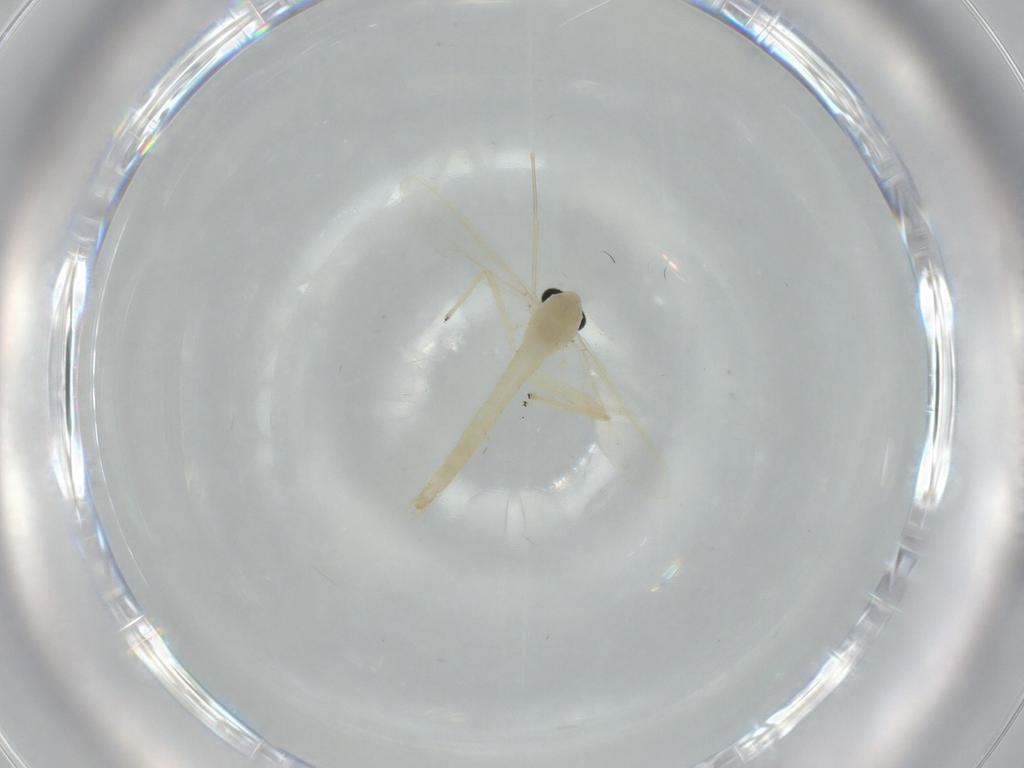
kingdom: Animalia
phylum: Arthropoda
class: Insecta
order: Diptera
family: Chironomidae
